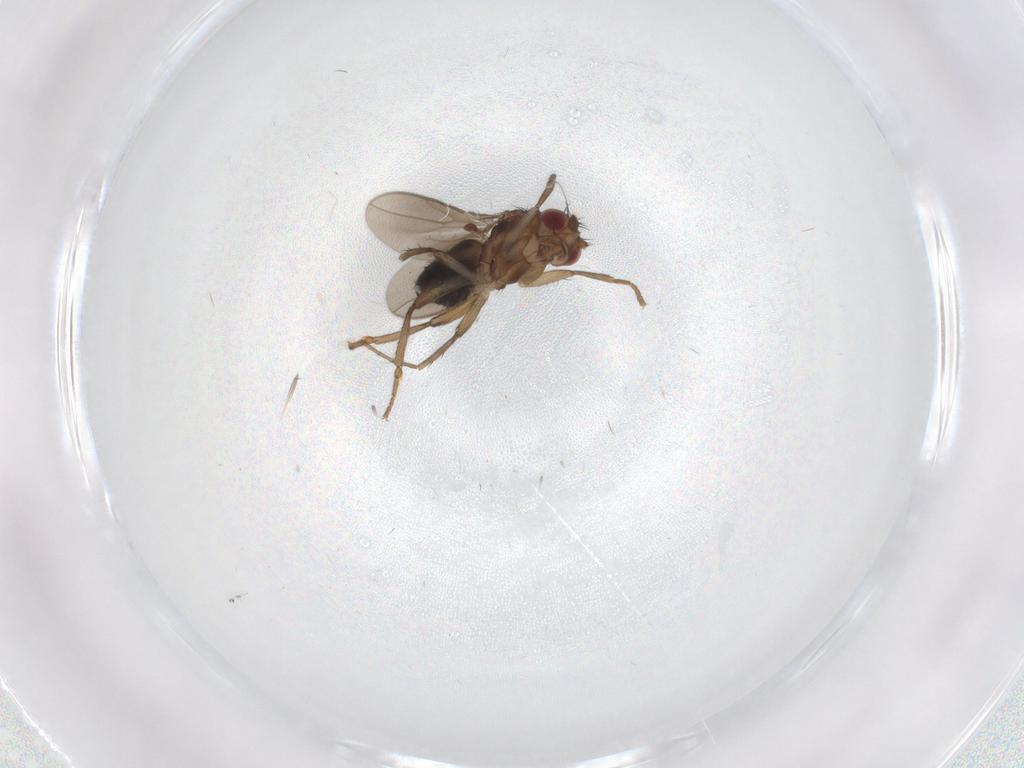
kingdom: Animalia
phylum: Arthropoda
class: Insecta
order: Diptera
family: Sphaeroceridae
